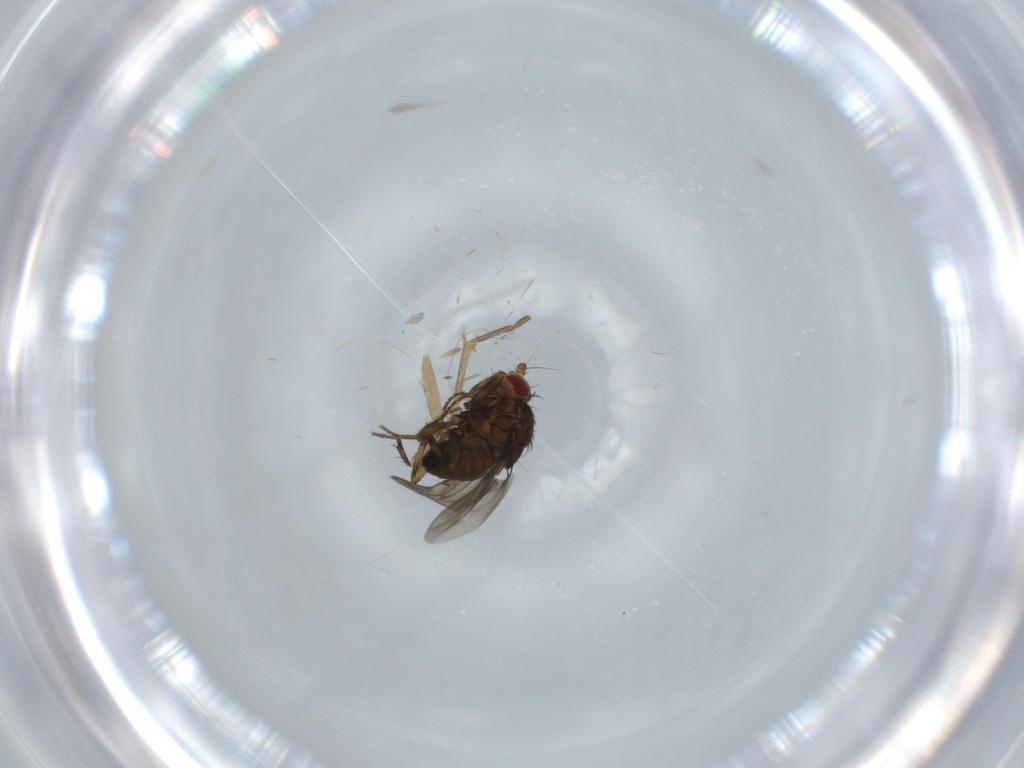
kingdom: Animalia
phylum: Arthropoda
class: Insecta
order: Diptera
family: Cecidomyiidae
